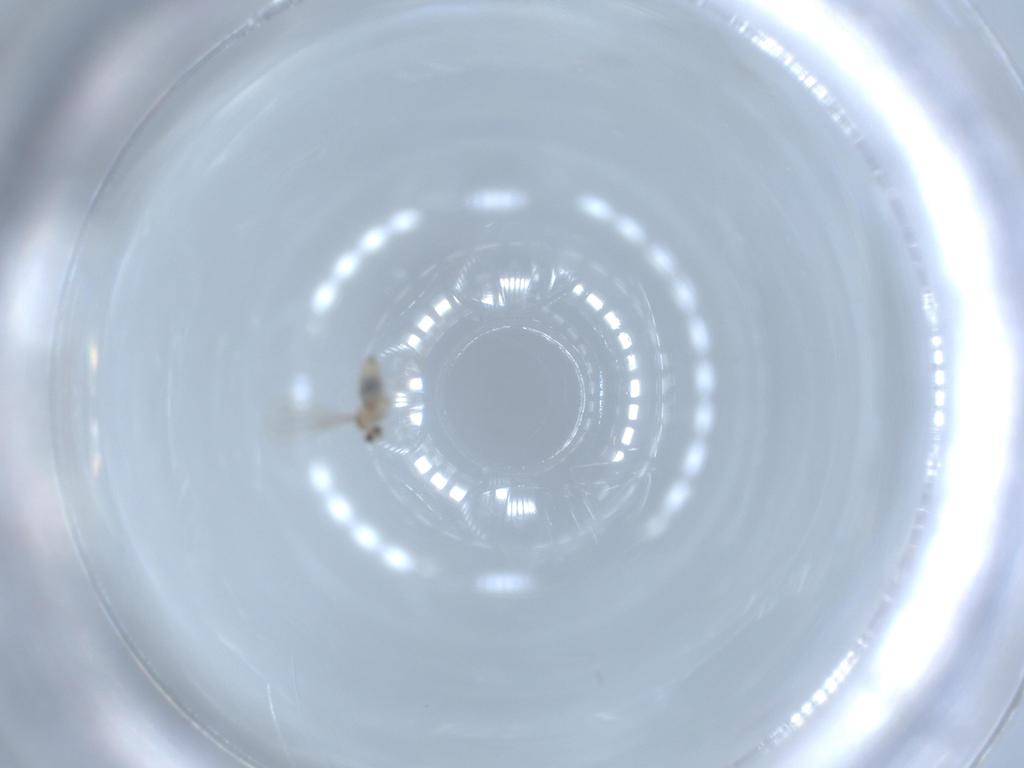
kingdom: Animalia
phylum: Arthropoda
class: Insecta
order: Diptera
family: Cecidomyiidae
